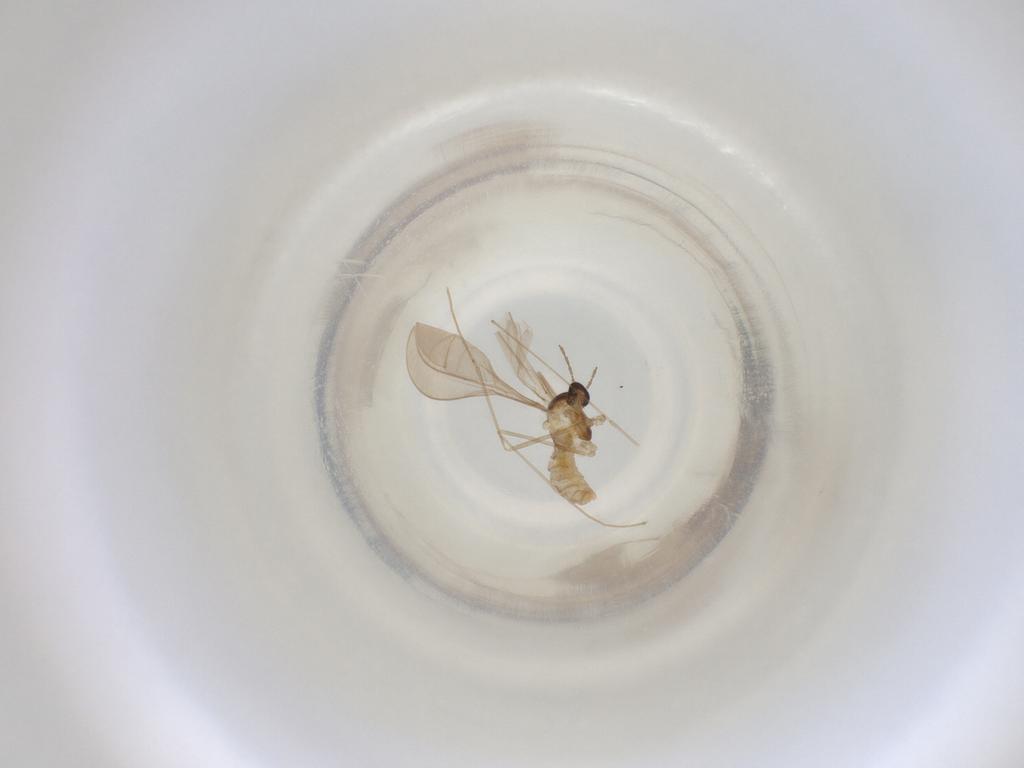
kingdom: Animalia
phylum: Arthropoda
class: Insecta
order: Diptera
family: Cecidomyiidae
